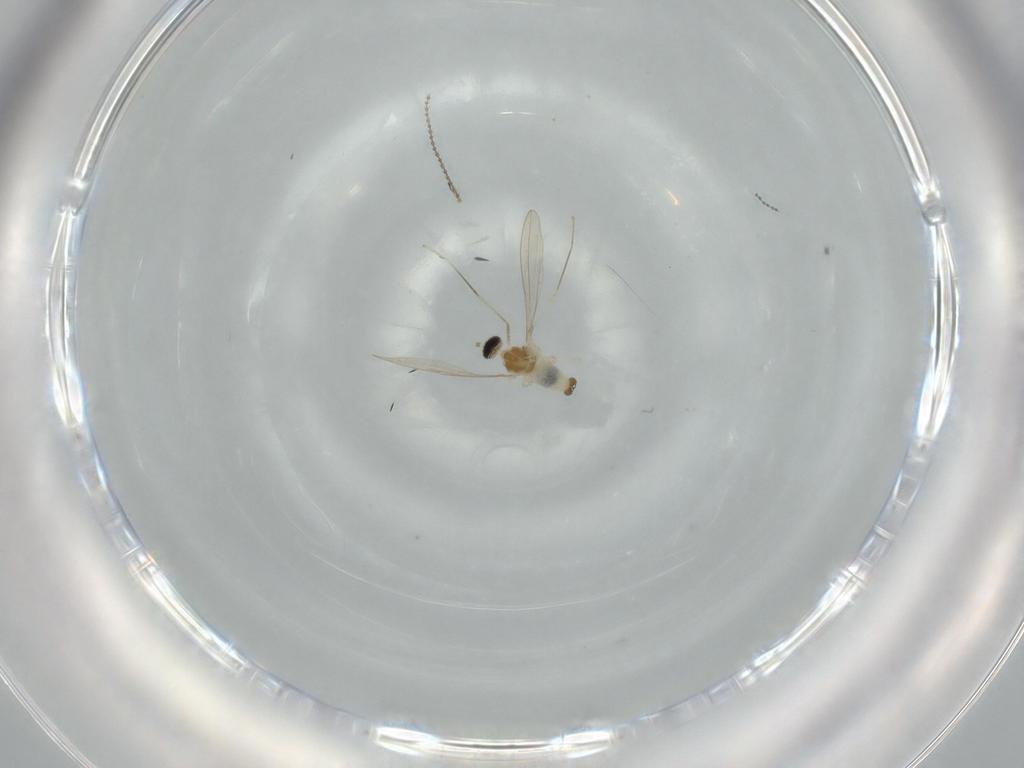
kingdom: Animalia
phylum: Arthropoda
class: Insecta
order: Diptera
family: Cecidomyiidae
